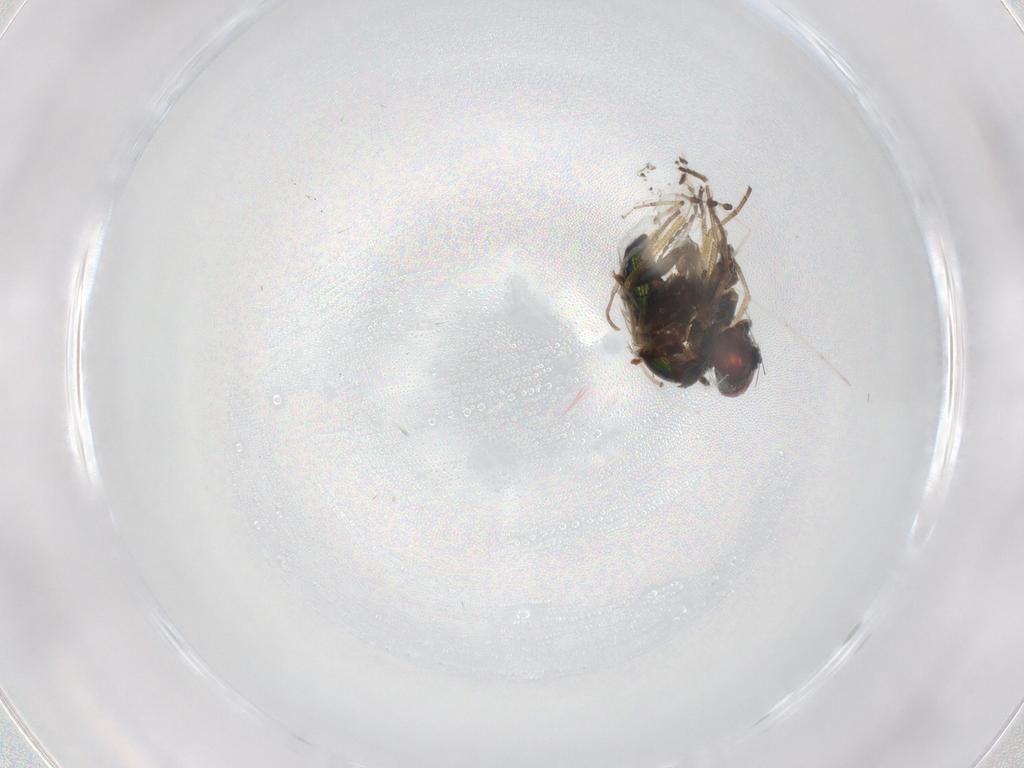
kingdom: Animalia
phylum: Arthropoda
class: Insecta
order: Diptera
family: Dolichopodidae
